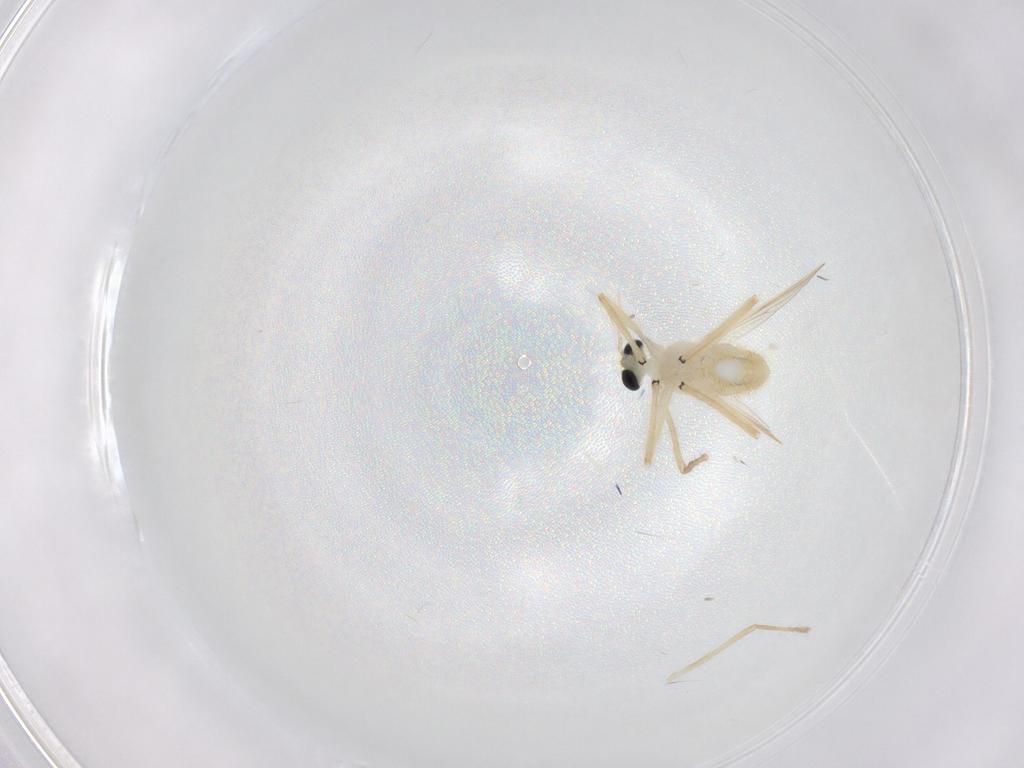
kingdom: Animalia
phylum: Arthropoda
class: Insecta
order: Diptera
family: Chironomidae
